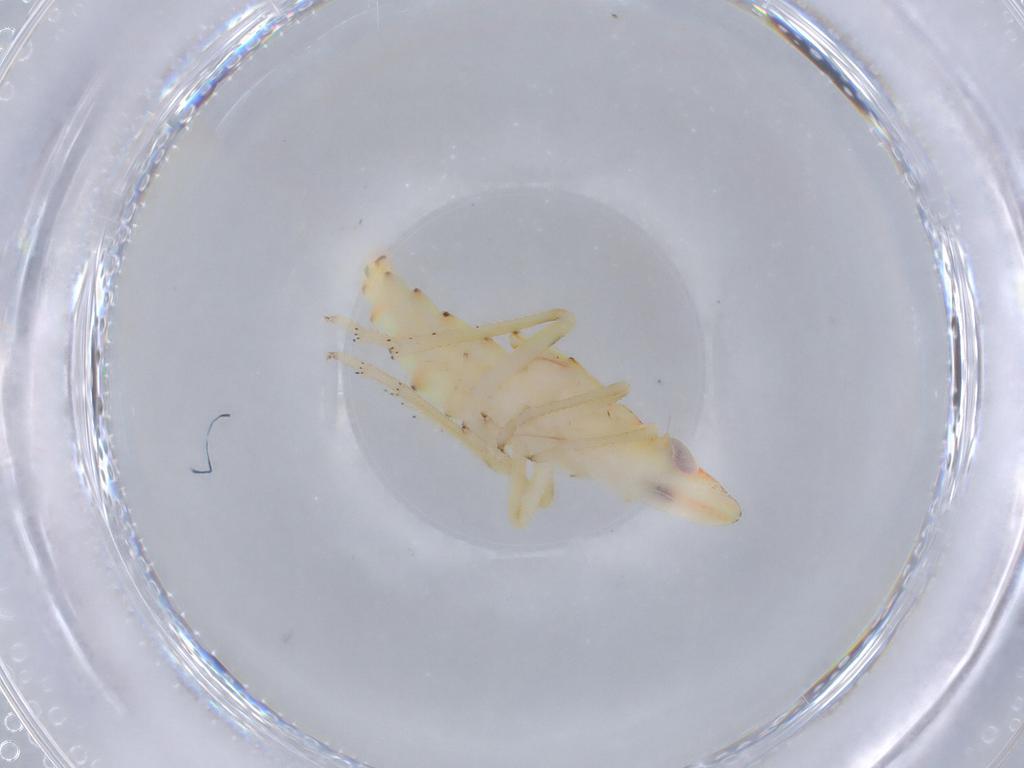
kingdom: Animalia
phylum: Arthropoda
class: Insecta
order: Hemiptera
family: Tropiduchidae
